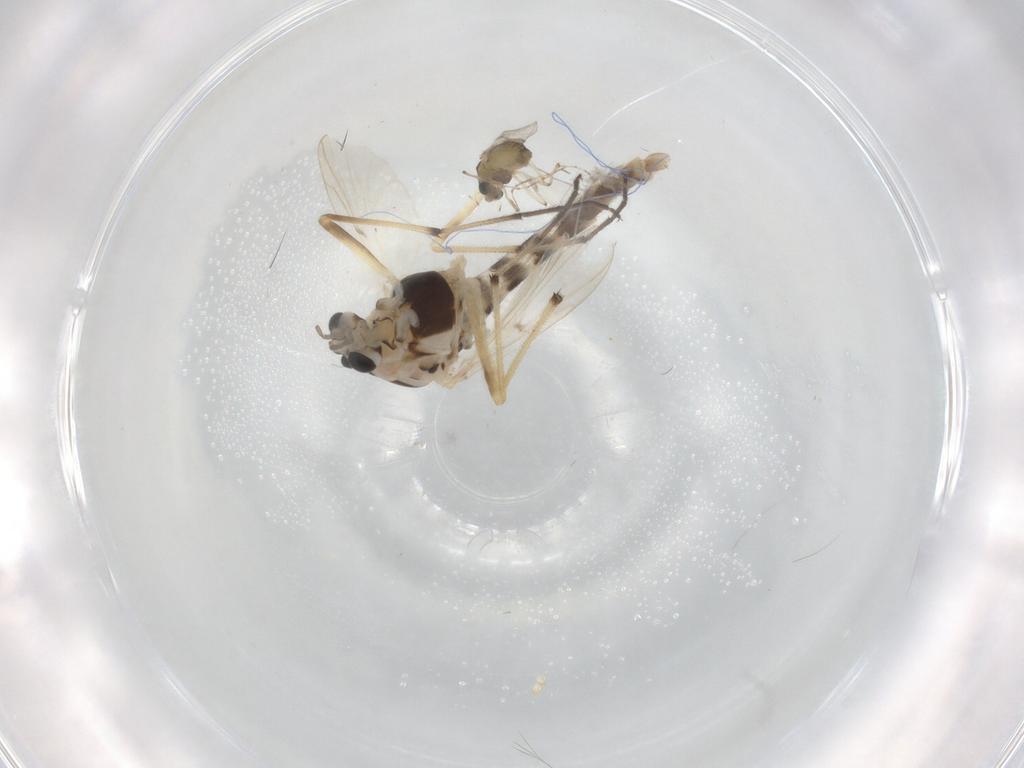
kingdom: Animalia
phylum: Arthropoda
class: Insecta
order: Diptera
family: Chironomidae
